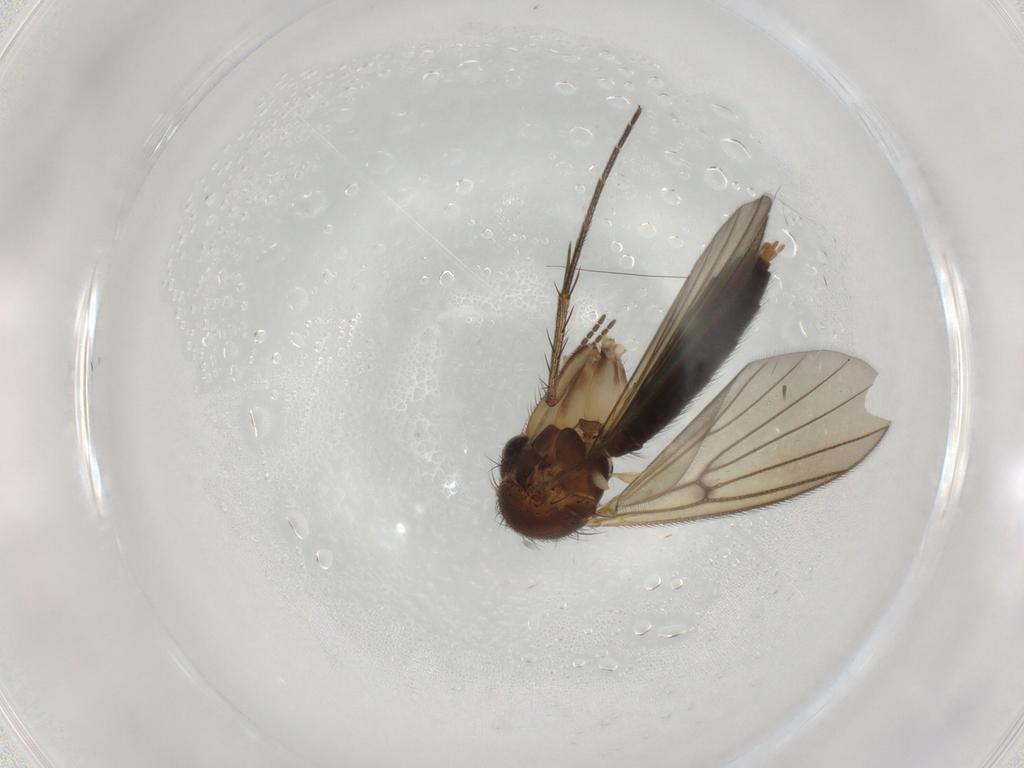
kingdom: Animalia
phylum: Arthropoda
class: Insecta
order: Diptera
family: Mycetophilidae
